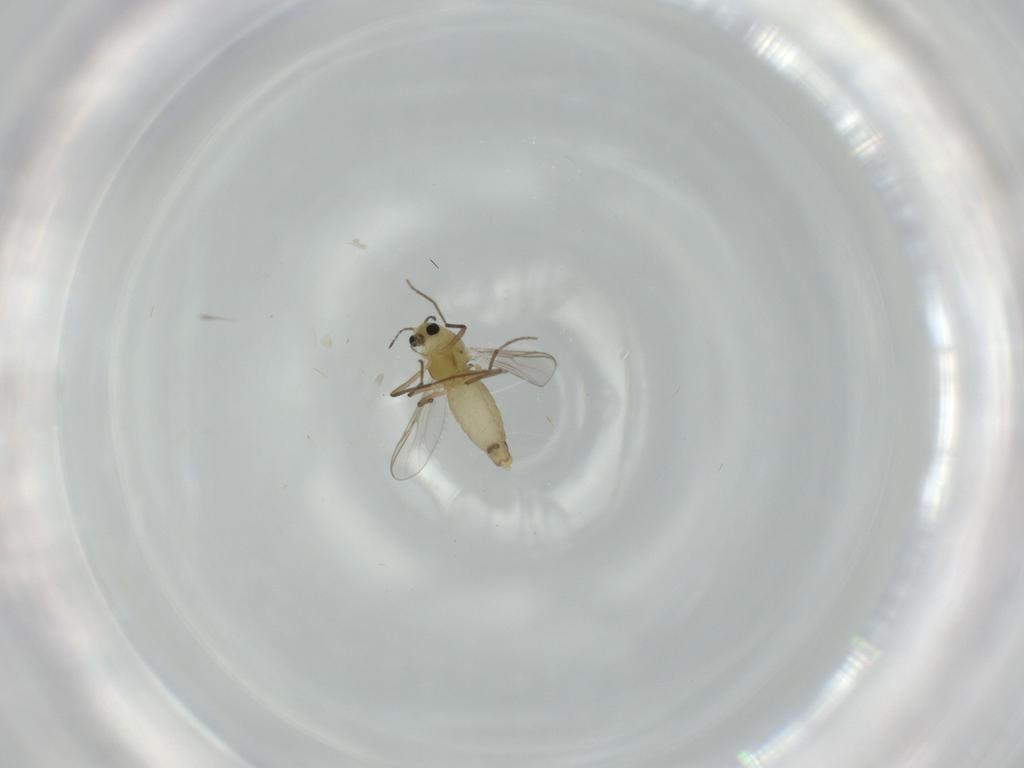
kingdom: Animalia
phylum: Arthropoda
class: Insecta
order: Diptera
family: Chironomidae
